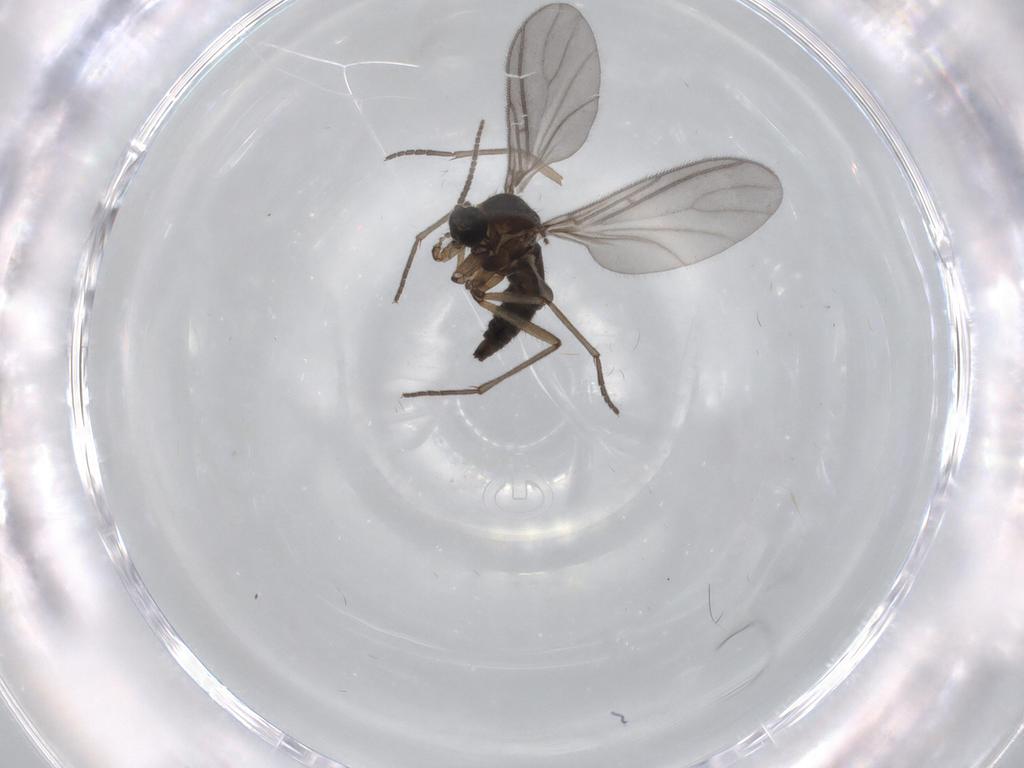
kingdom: Animalia
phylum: Arthropoda
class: Insecta
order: Diptera
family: Sciaridae
